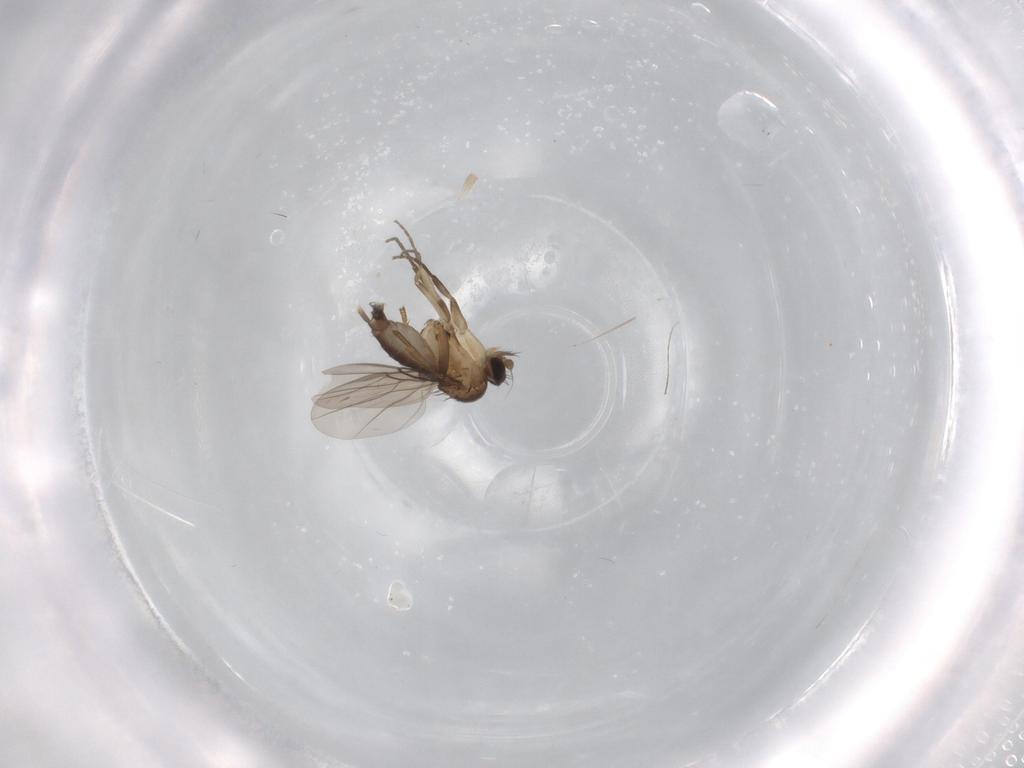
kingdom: Animalia
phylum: Arthropoda
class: Insecta
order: Diptera
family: Phoridae
